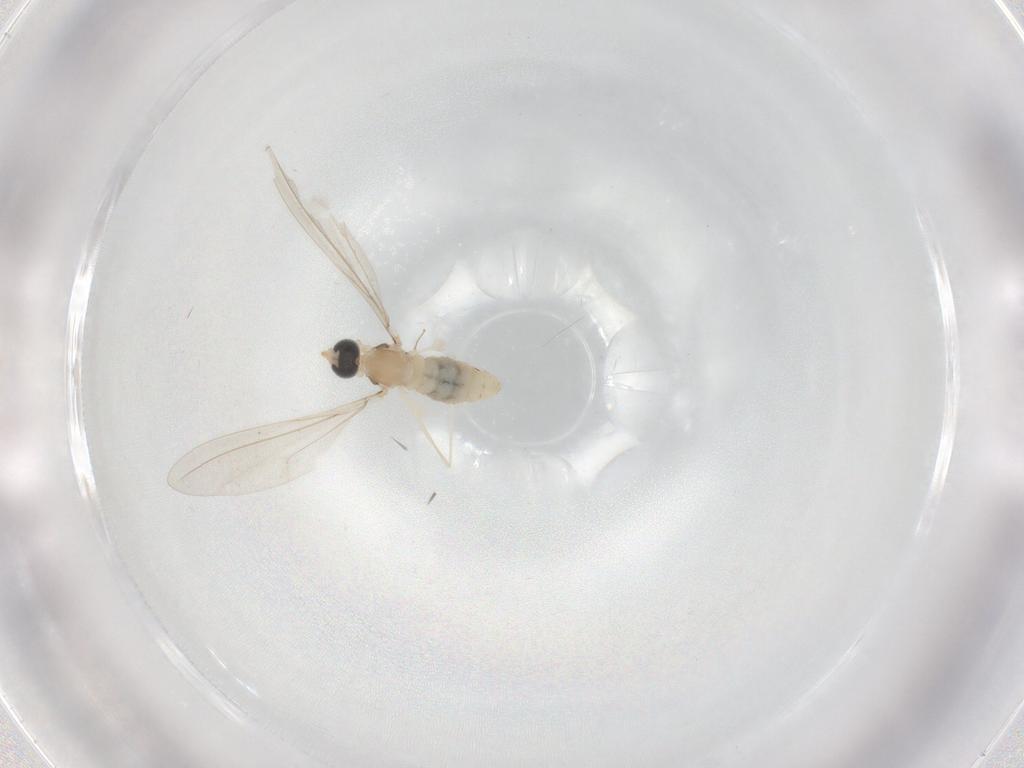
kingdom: Animalia
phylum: Arthropoda
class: Insecta
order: Diptera
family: Cecidomyiidae
